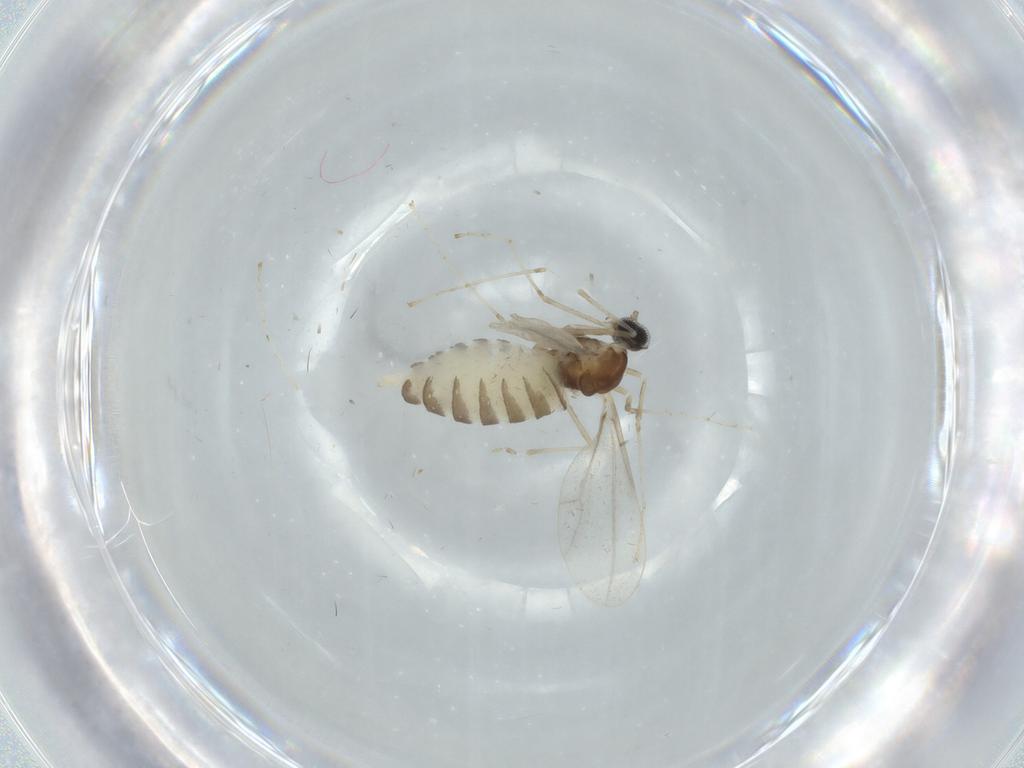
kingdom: Animalia
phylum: Arthropoda
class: Insecta
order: Diptera
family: Cecidomyiidae
